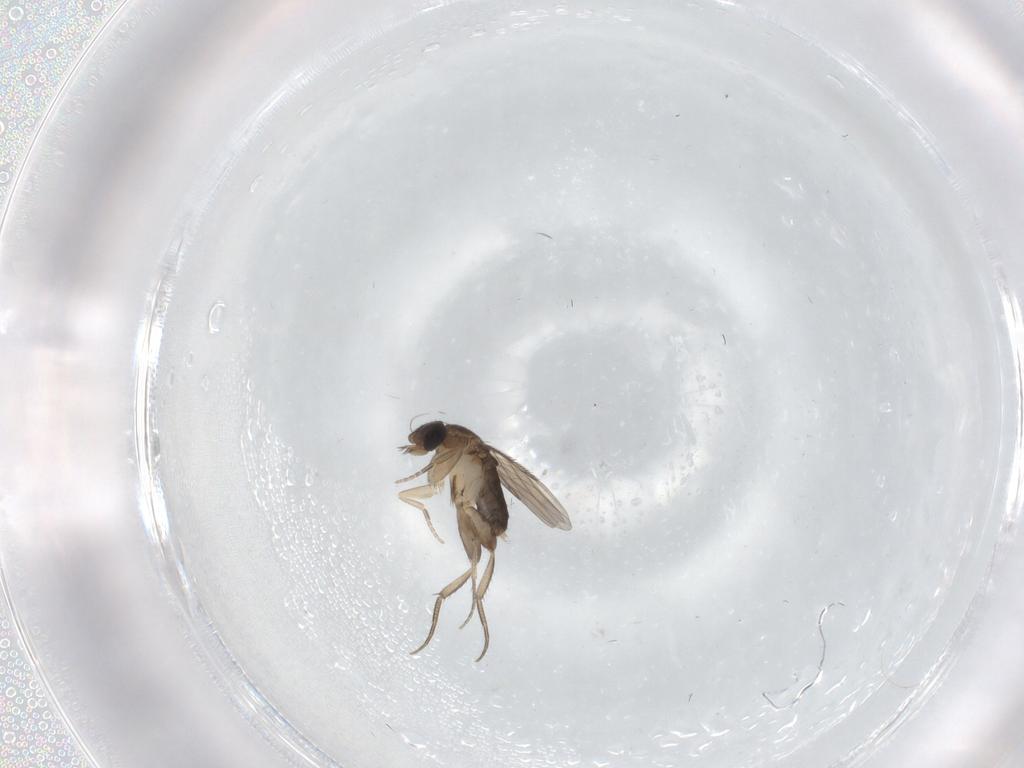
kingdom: Animalia
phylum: Arthropoda
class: Insecta
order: Diptera
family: Phoridae
